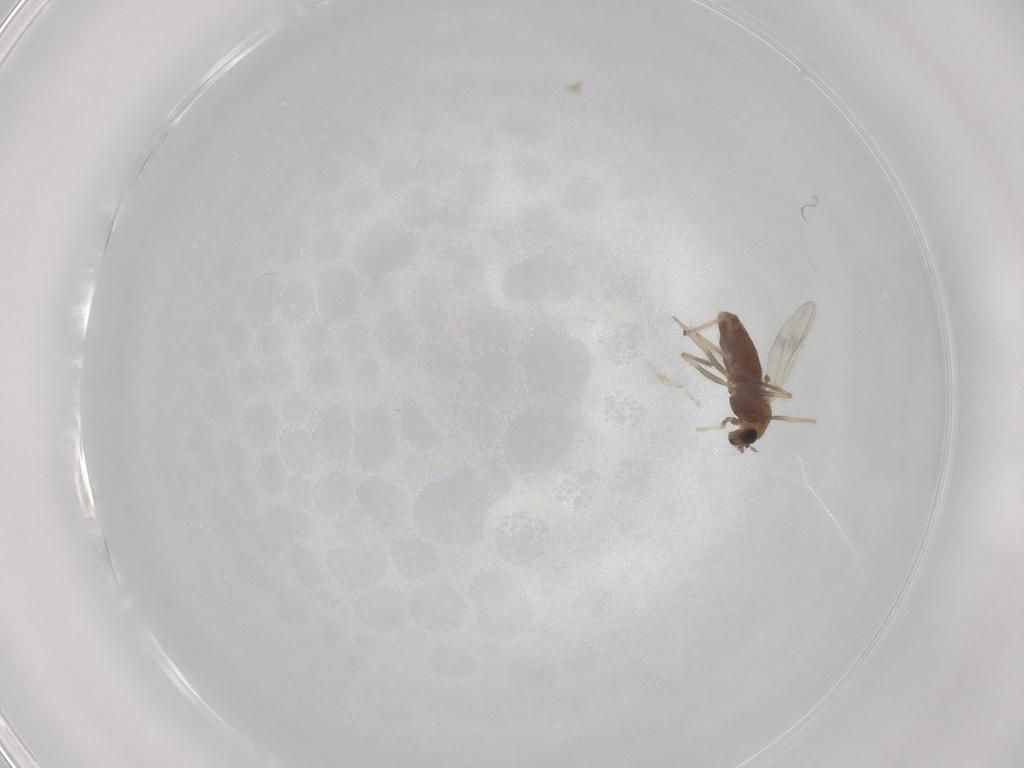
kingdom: Animalia
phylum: Arthropoda
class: Insecta
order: Diptera
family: Chironomidae
